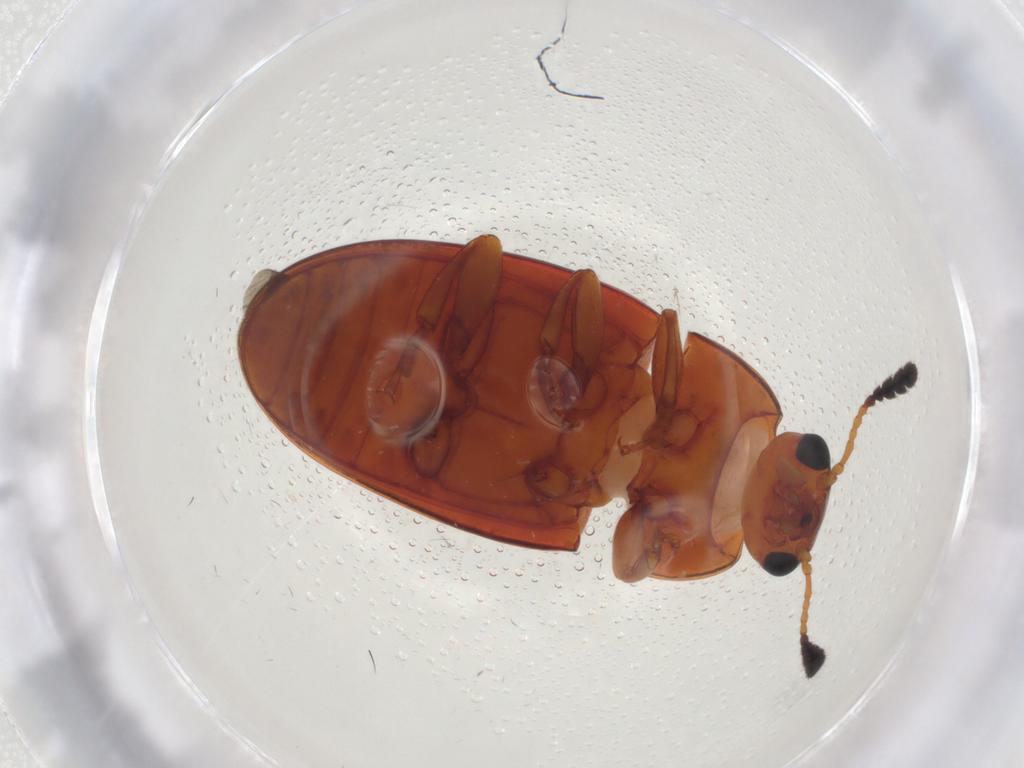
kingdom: Animalia
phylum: Arthropoda
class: Insecta
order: Coleoptera
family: Erotylidae
